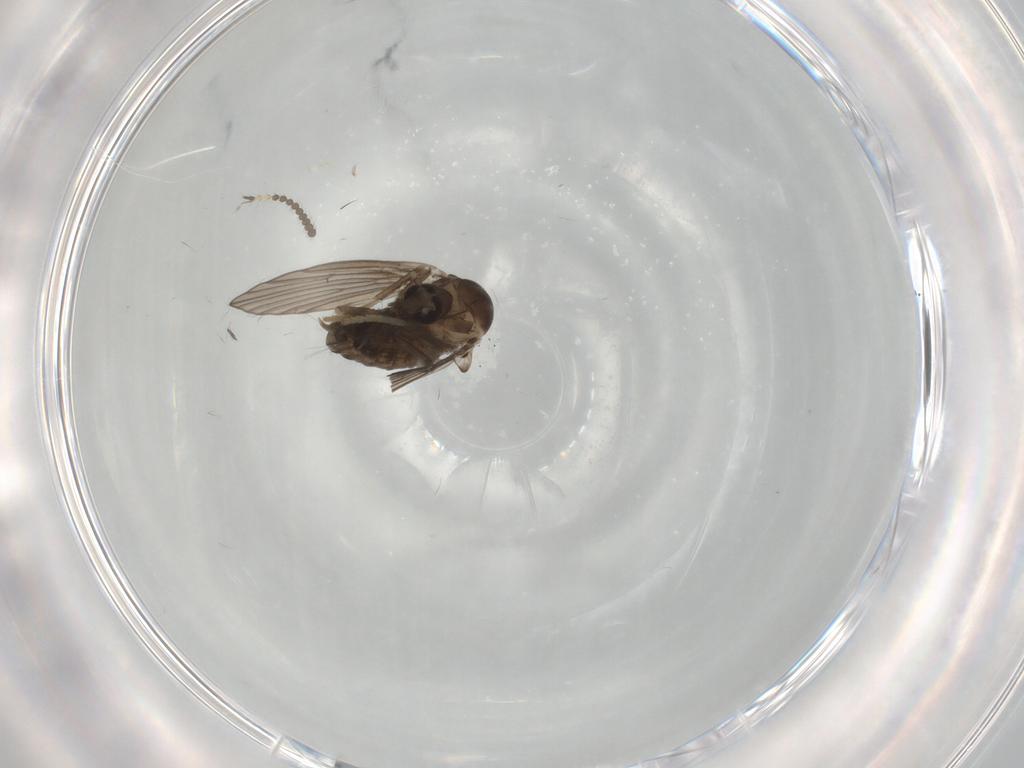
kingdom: Animalia
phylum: Arthropoda
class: Insecta
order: Diptera
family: Limoniidae
